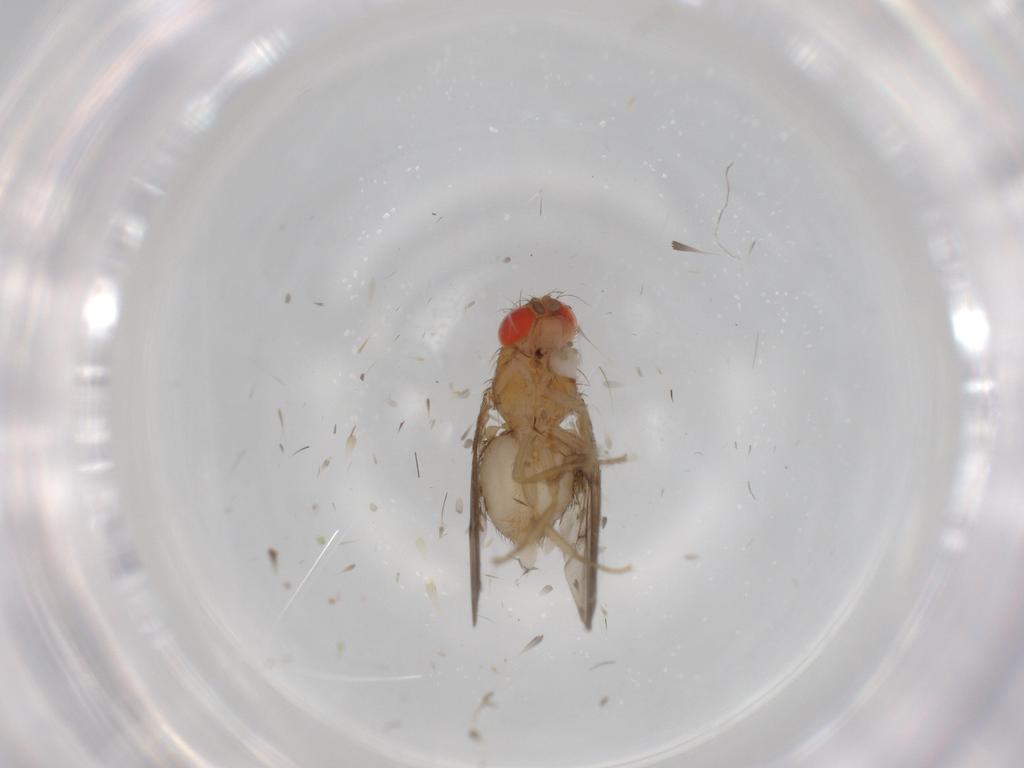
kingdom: Animalia
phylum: Arthropoda
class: Insecta
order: Diptera
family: Drosophilidae
